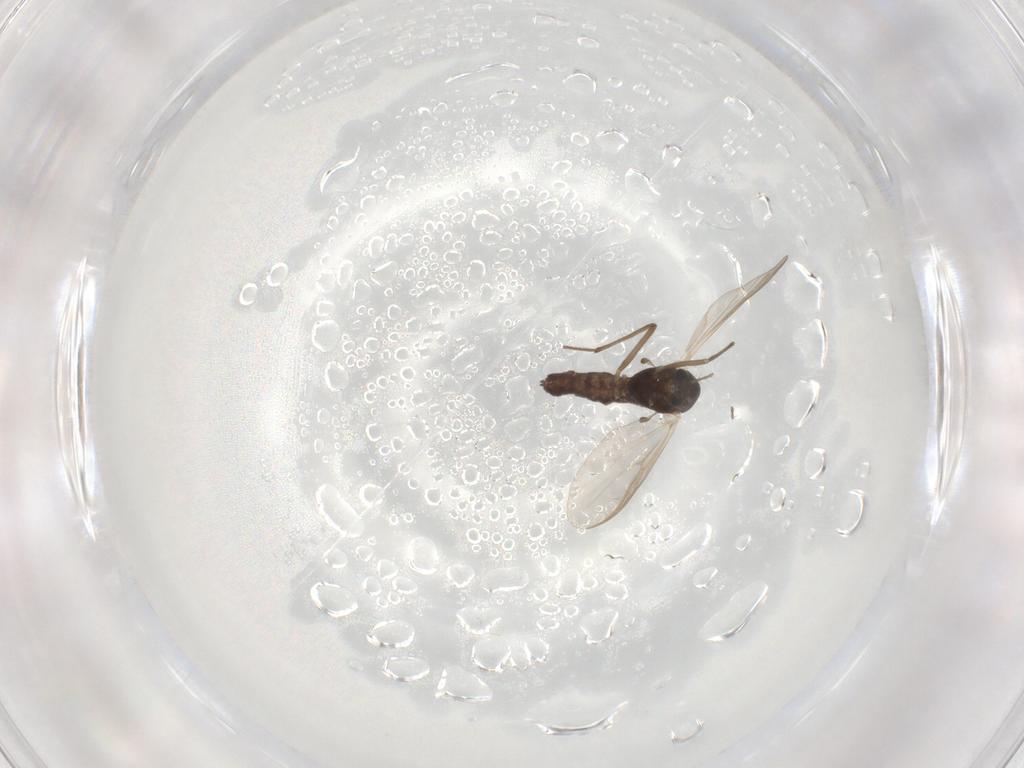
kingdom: Animalia
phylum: Arthropoda
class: Insecta
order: Diptera
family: Chironomidae
